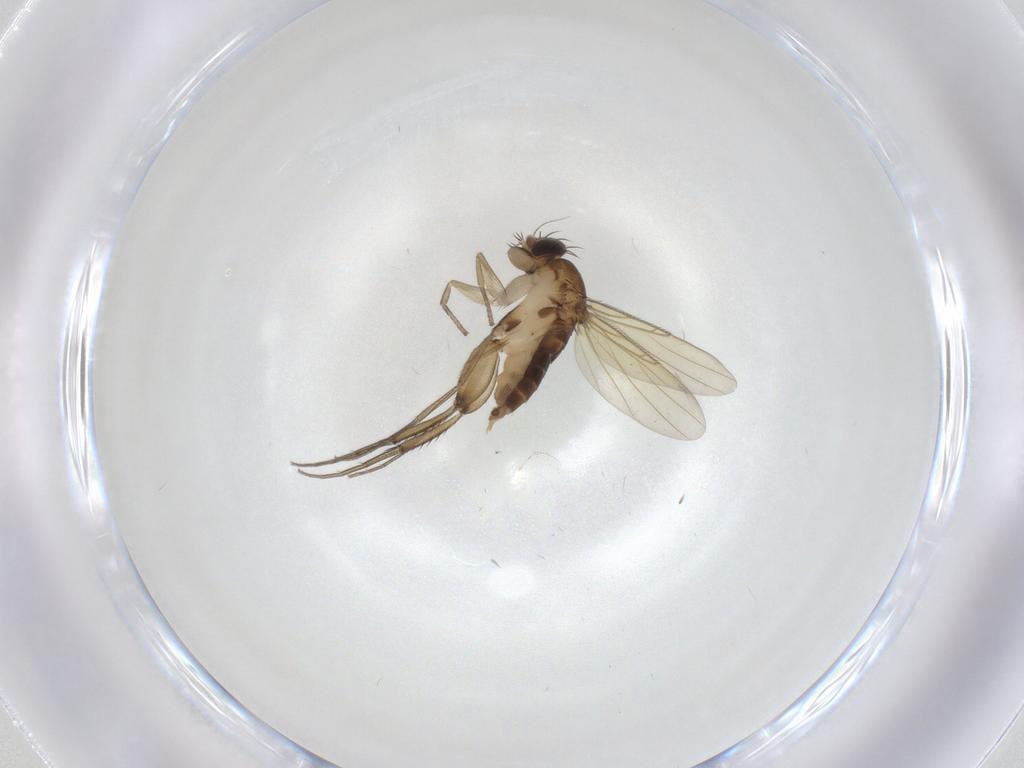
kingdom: Animalia
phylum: Arthropoda
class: Insecta
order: Diptera
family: Phoridae
